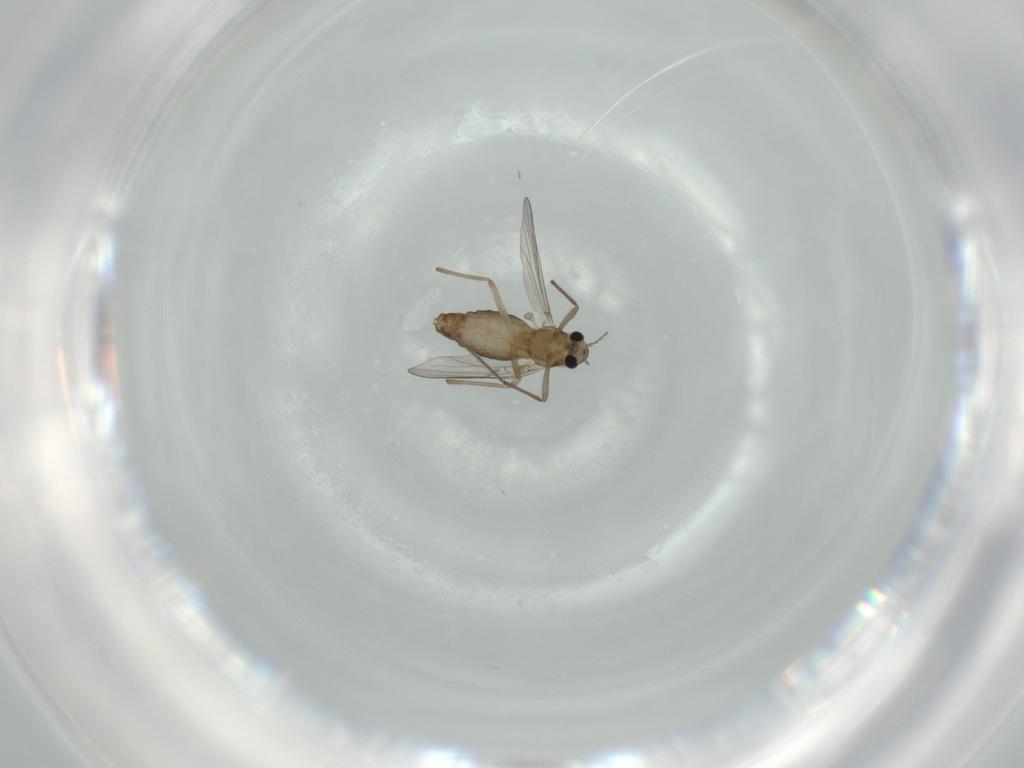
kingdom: Animalia
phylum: Arthropoda
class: Insecta
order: Diptera
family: Chironomidae
